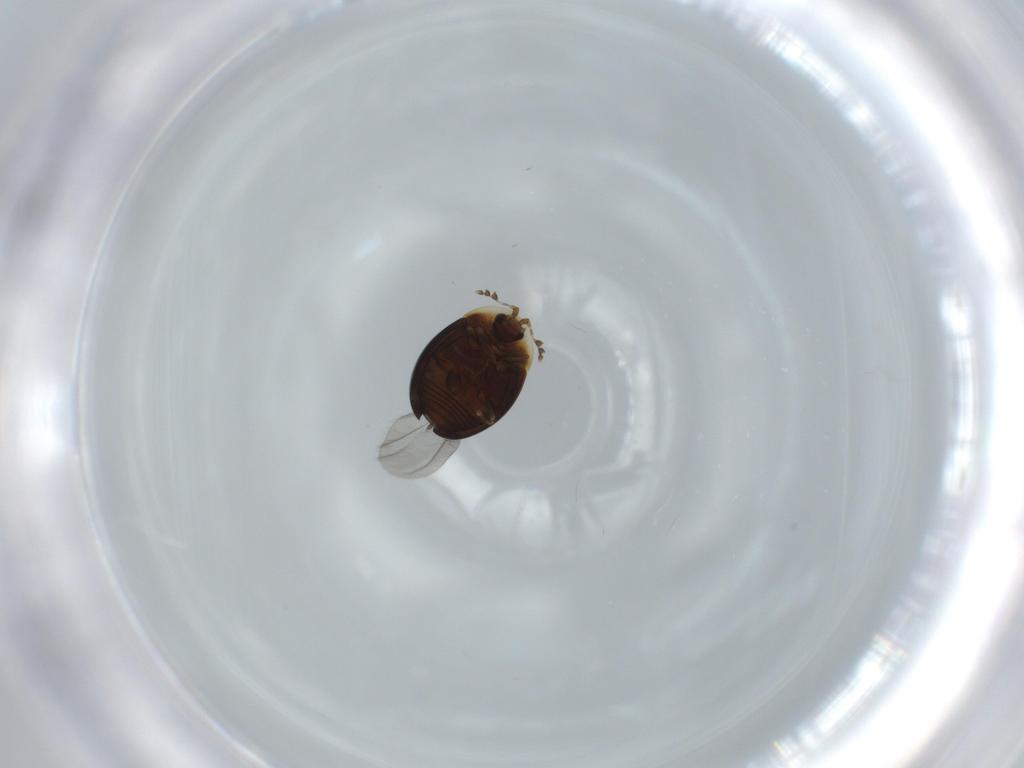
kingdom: Animalia
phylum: Arthropoda
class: Insecta
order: Coleoptera
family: Corylophidae
